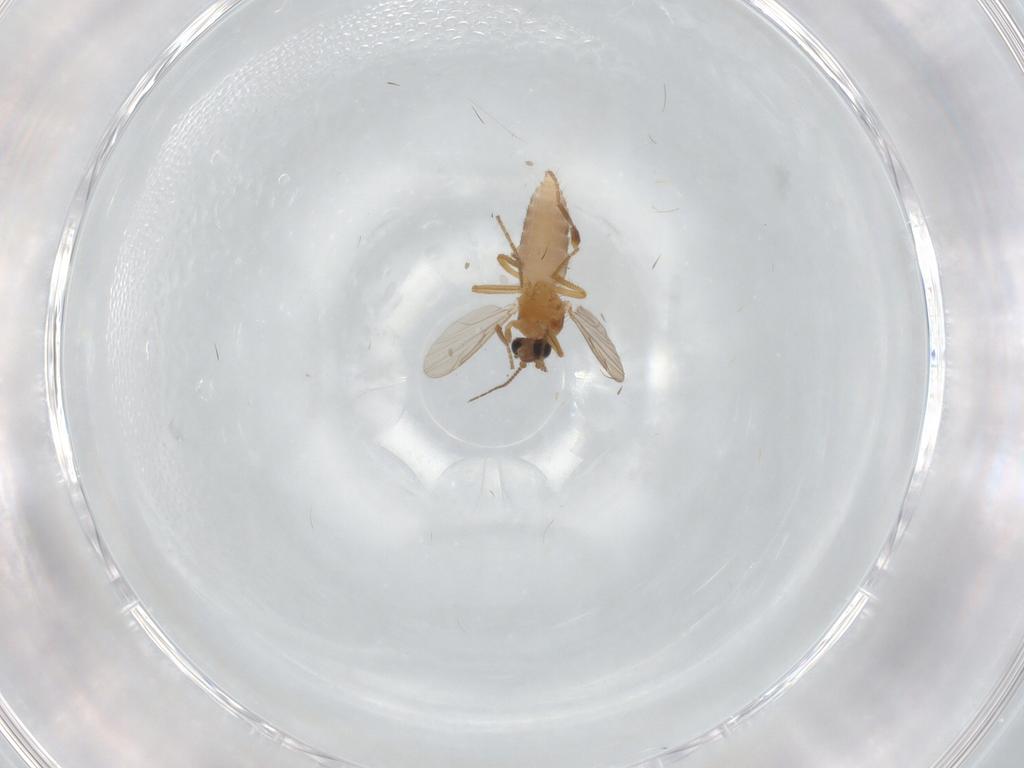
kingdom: Animalia
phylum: Arthropoda
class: Insecta
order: Diptera
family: Ceratopogonidae
